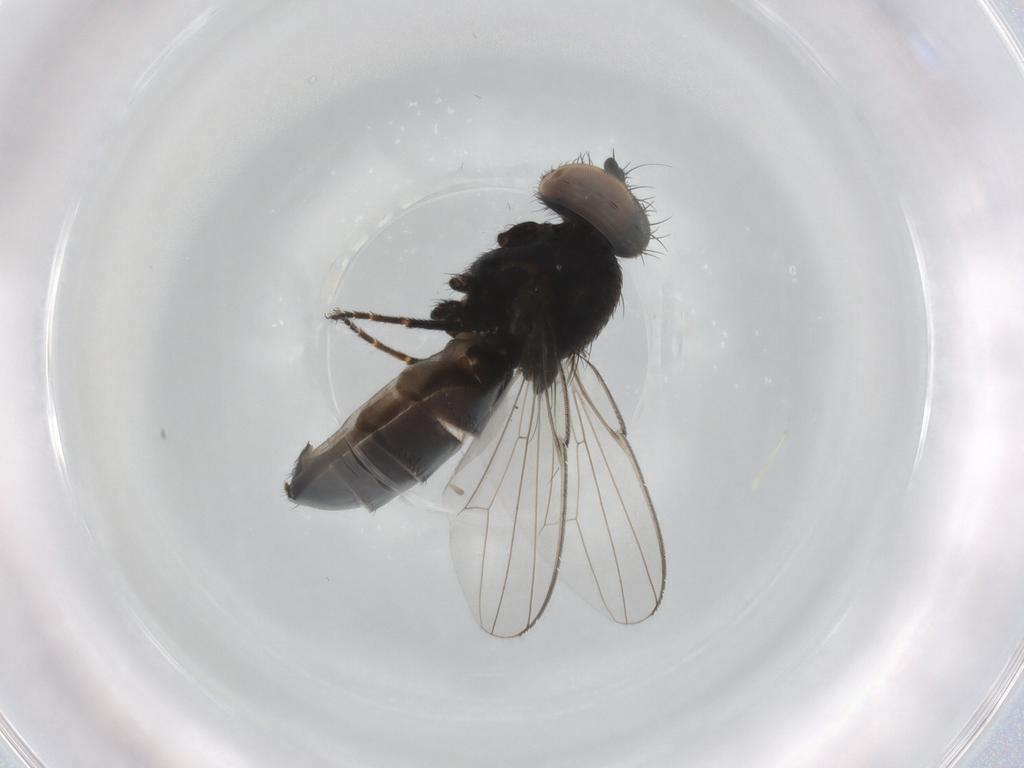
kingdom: Animalia
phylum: Arthropoda
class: Insecta
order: Diptera
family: Milichiidae
